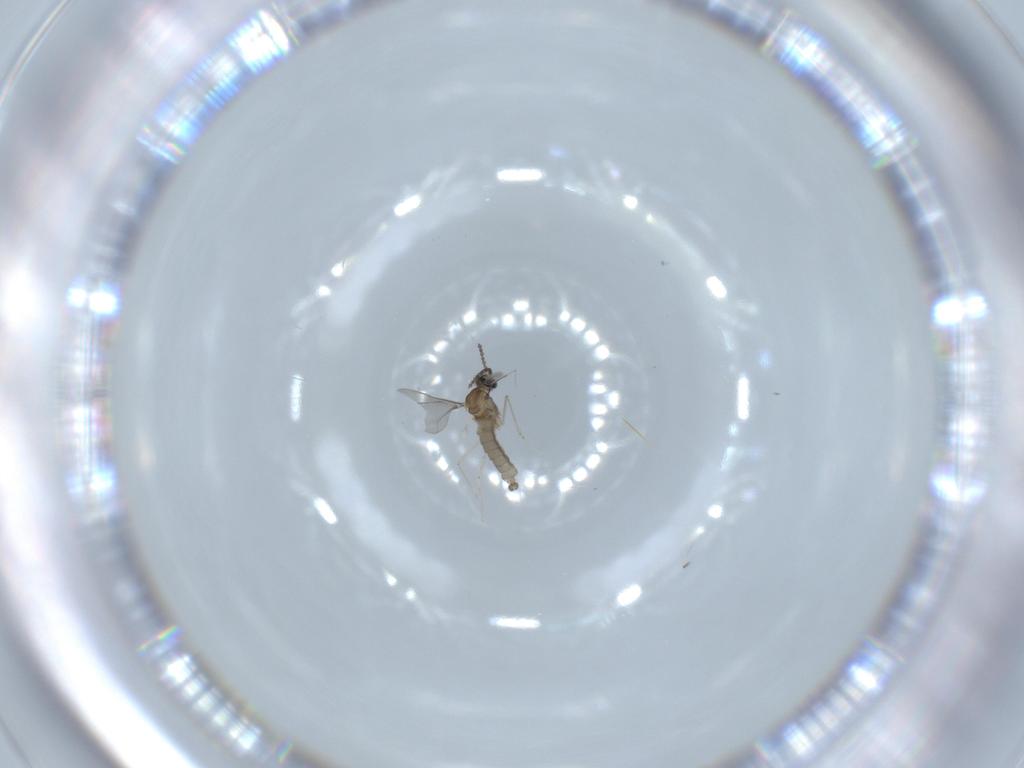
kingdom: Animalia
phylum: Arthropoda
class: Insecta
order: Diptera
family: Cecidomyiidae
